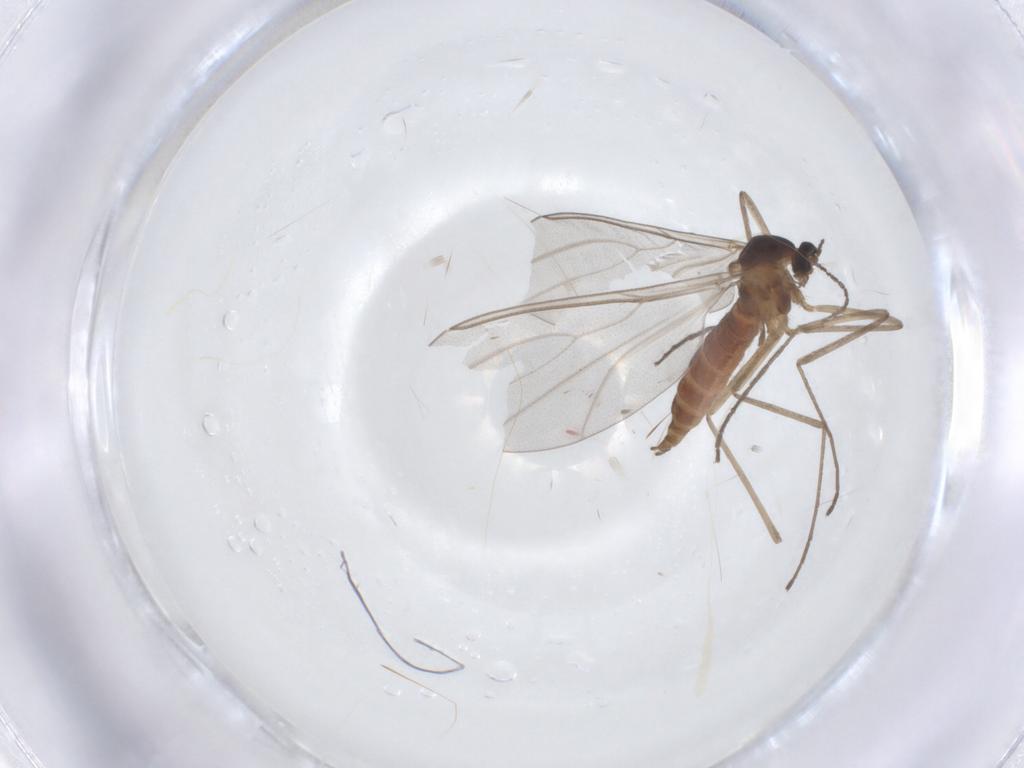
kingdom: Animalia
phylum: Arthropoda
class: Insecta
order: Diptera
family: Cecidomyiidae
